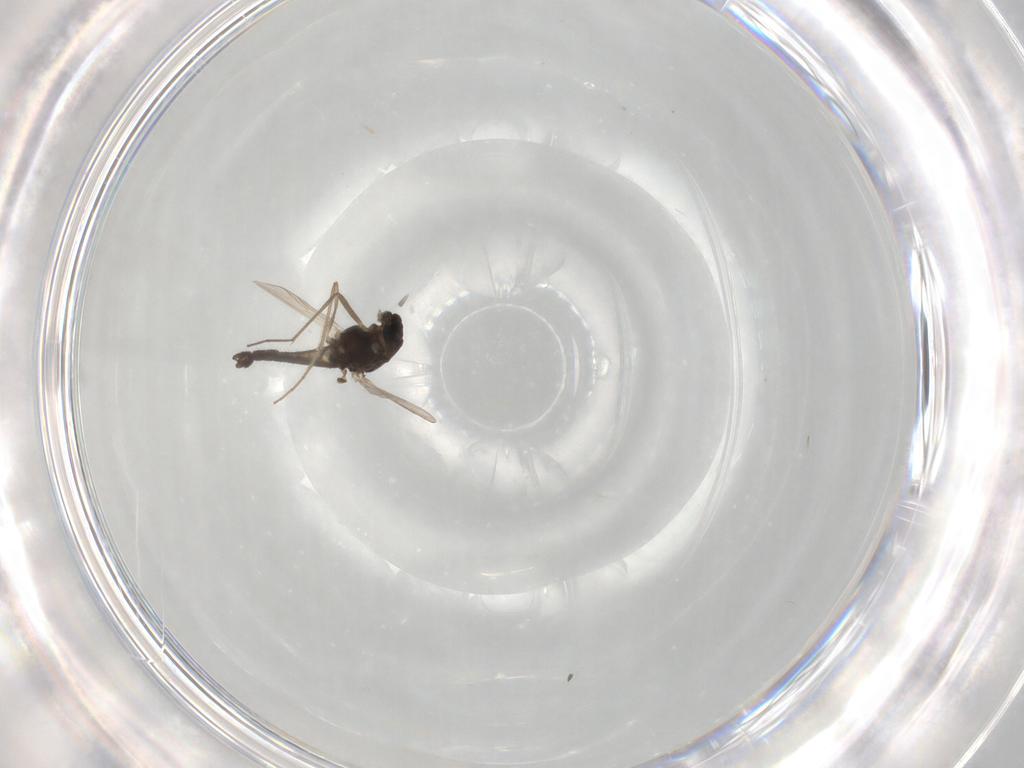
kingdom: Animalia
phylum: Arthropoda
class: Insecta
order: Diptera
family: Chironomidae
